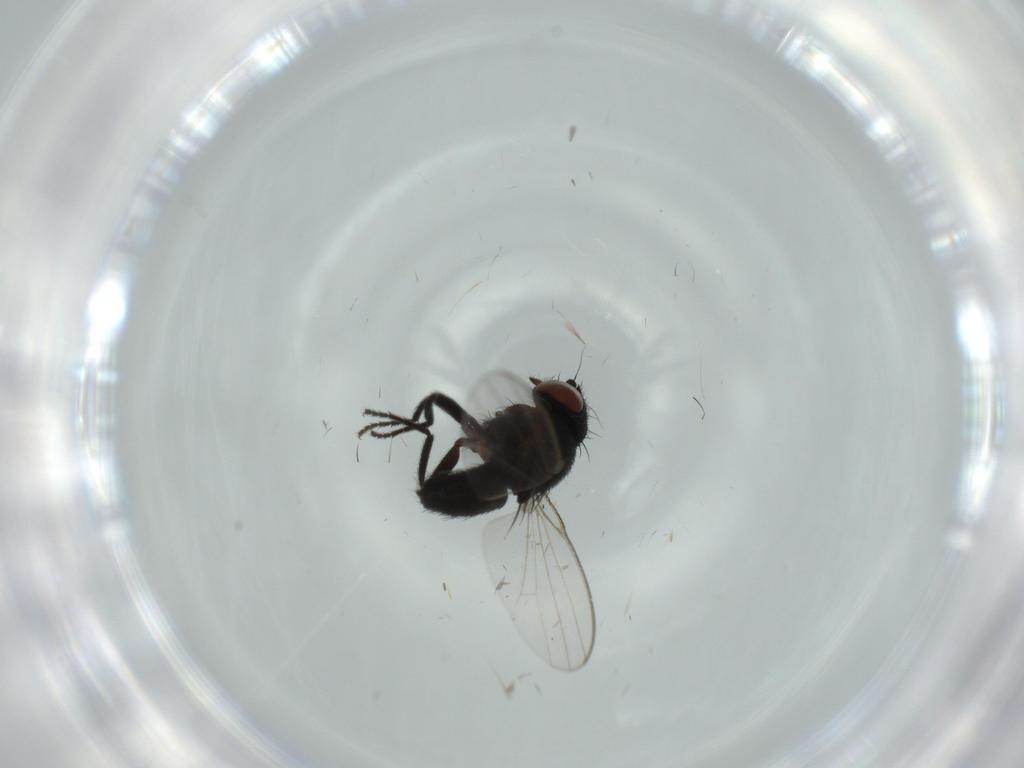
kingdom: Animalia
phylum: Arthropoda
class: Insecta
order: Diptera
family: Milichiidae
